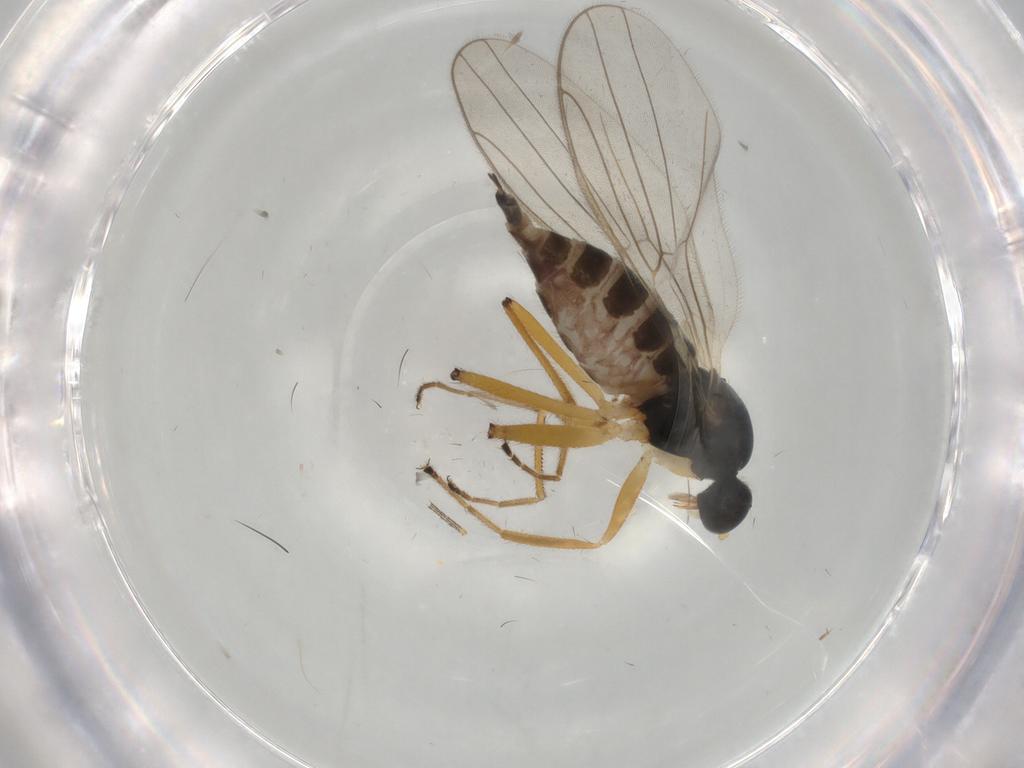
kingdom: Animalia
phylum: Arthropoda
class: Insecta
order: Diptera
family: Hybotidae
